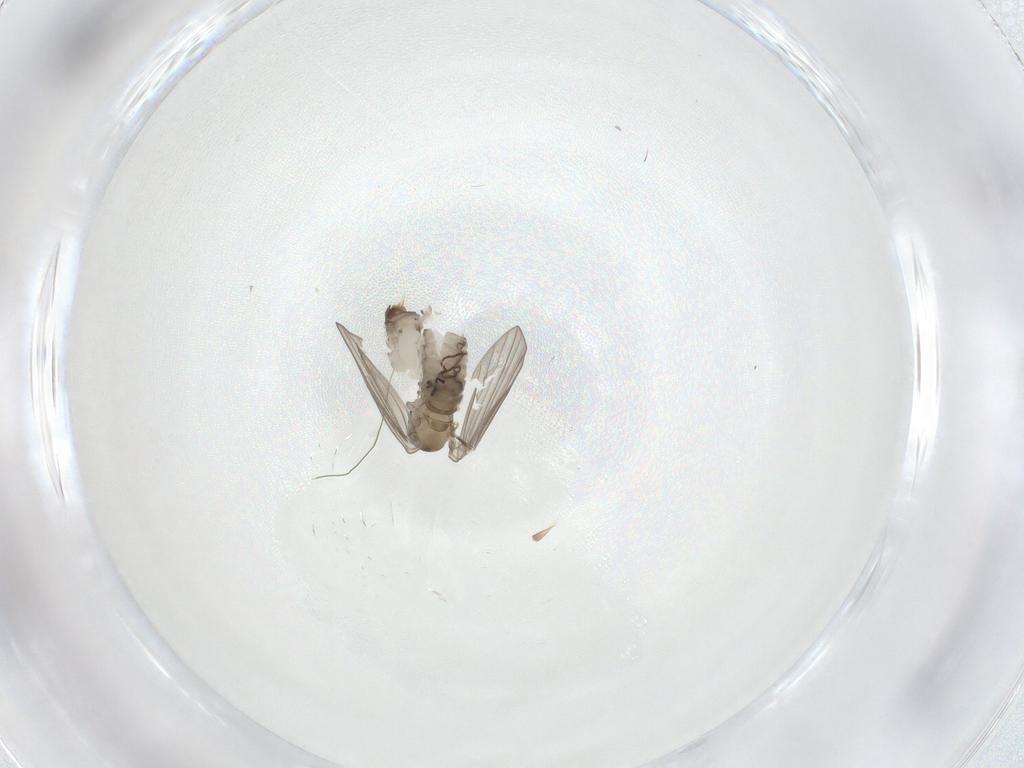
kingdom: Animalia
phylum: Arthropoda
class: Insecta
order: Diptera
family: Psychodidae
